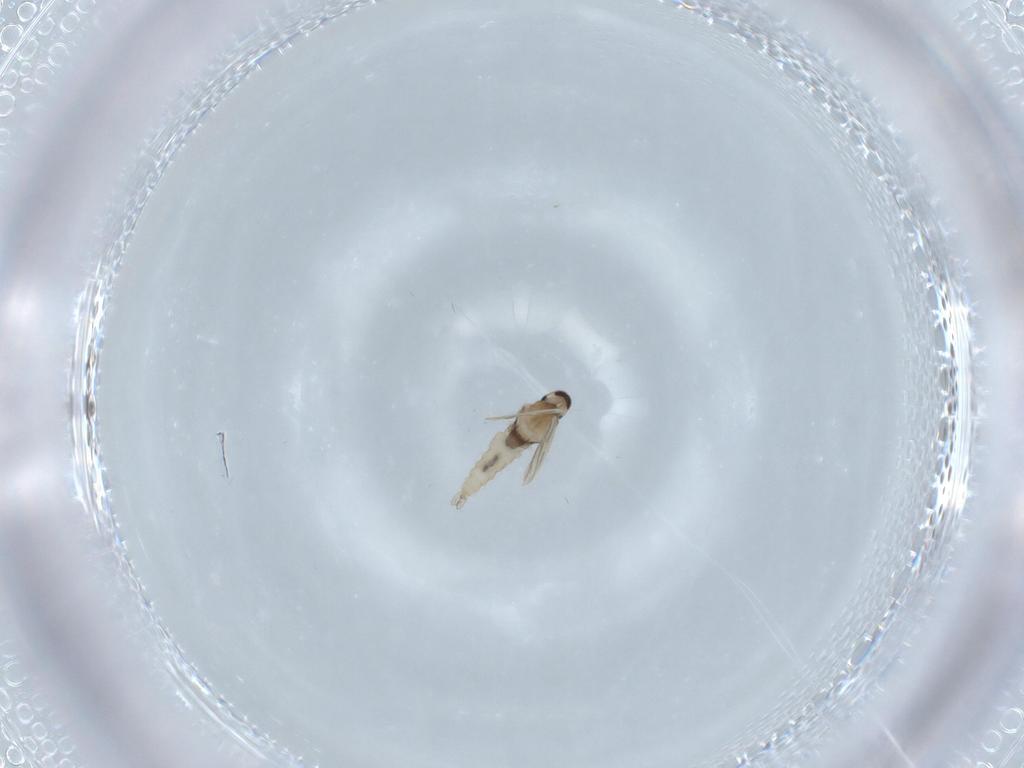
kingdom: Animalia
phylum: Arthropoda
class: Insecta
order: Diptera
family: Cecidomyiidae
